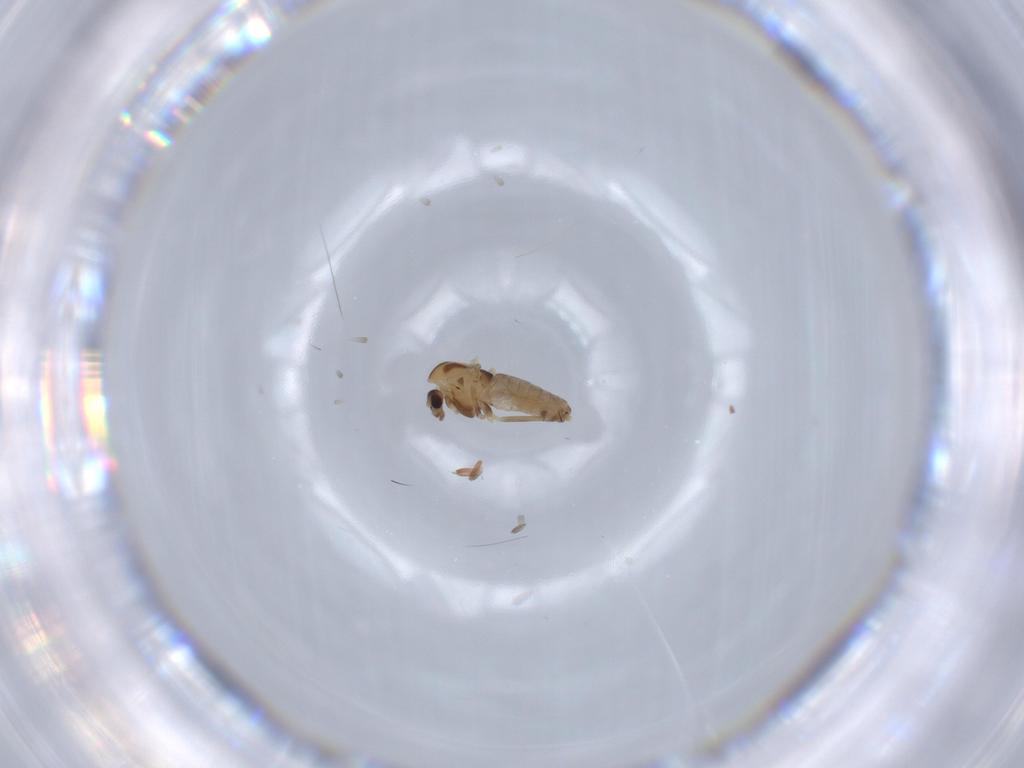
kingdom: Animalia
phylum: Arthropoda
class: Insecta
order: Diptera
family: Chironomidae
